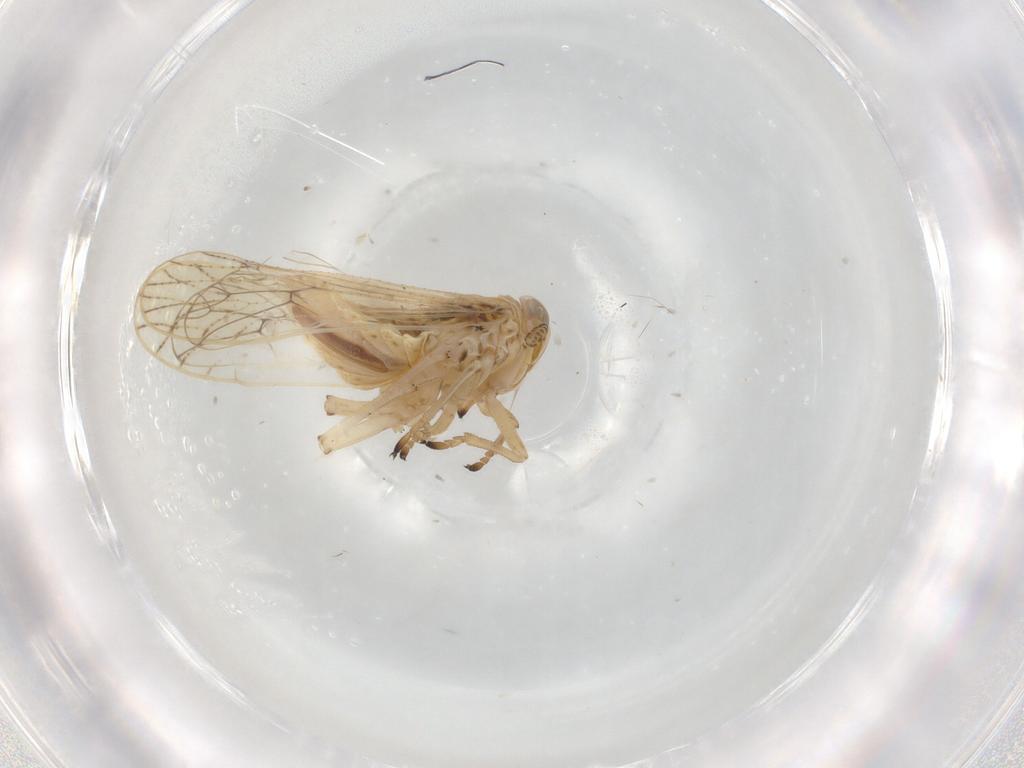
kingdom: Animalia
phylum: Arthropoda
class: Insecta
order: Hemiptera
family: Delphacidae
